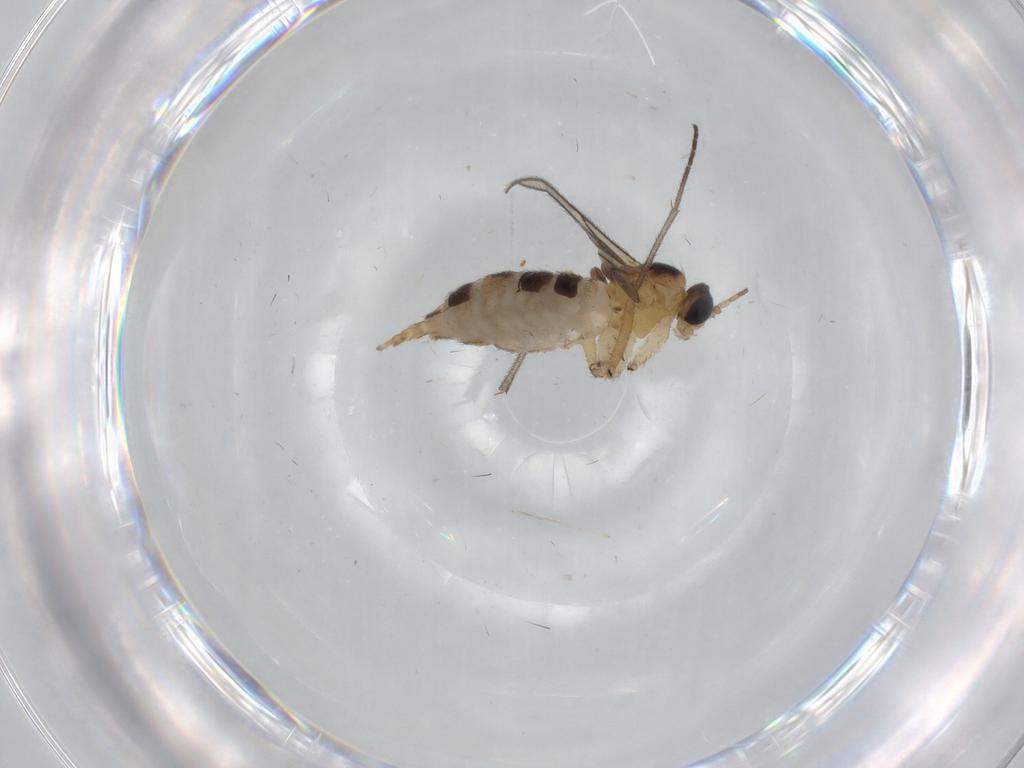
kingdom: Animalia
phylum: Arthropoda
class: Insecta
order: Diptera
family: Sciaridae
